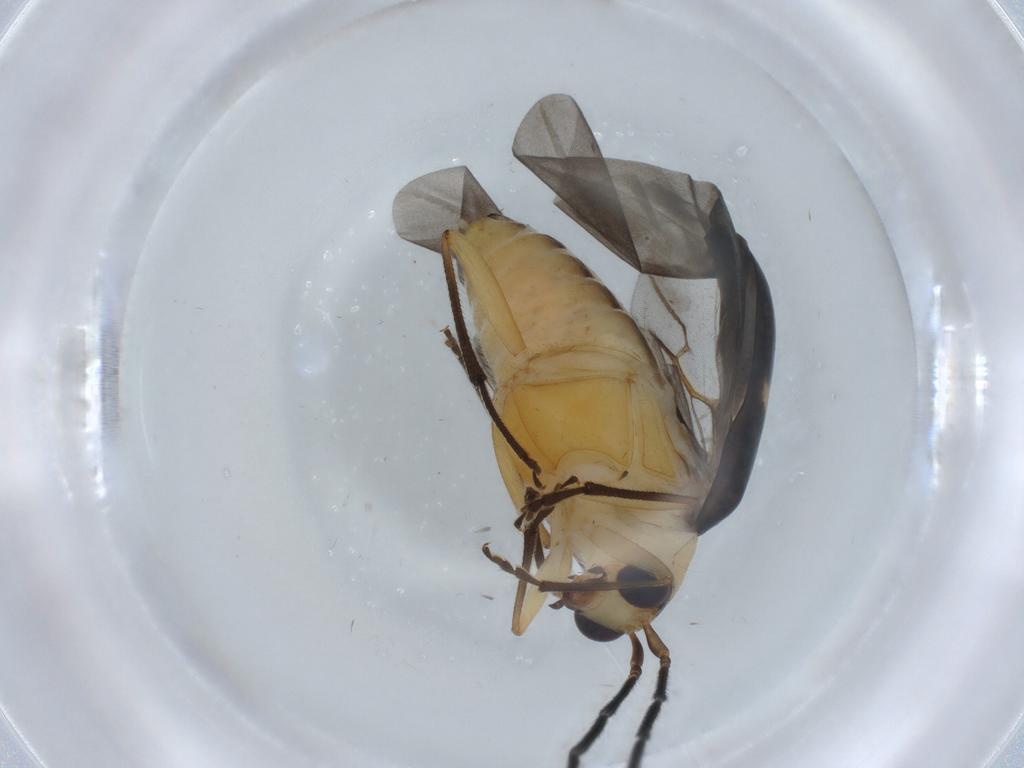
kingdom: Animalia
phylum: Arthropoda
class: Insecta
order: Coleoptera
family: Chrysomelidae
